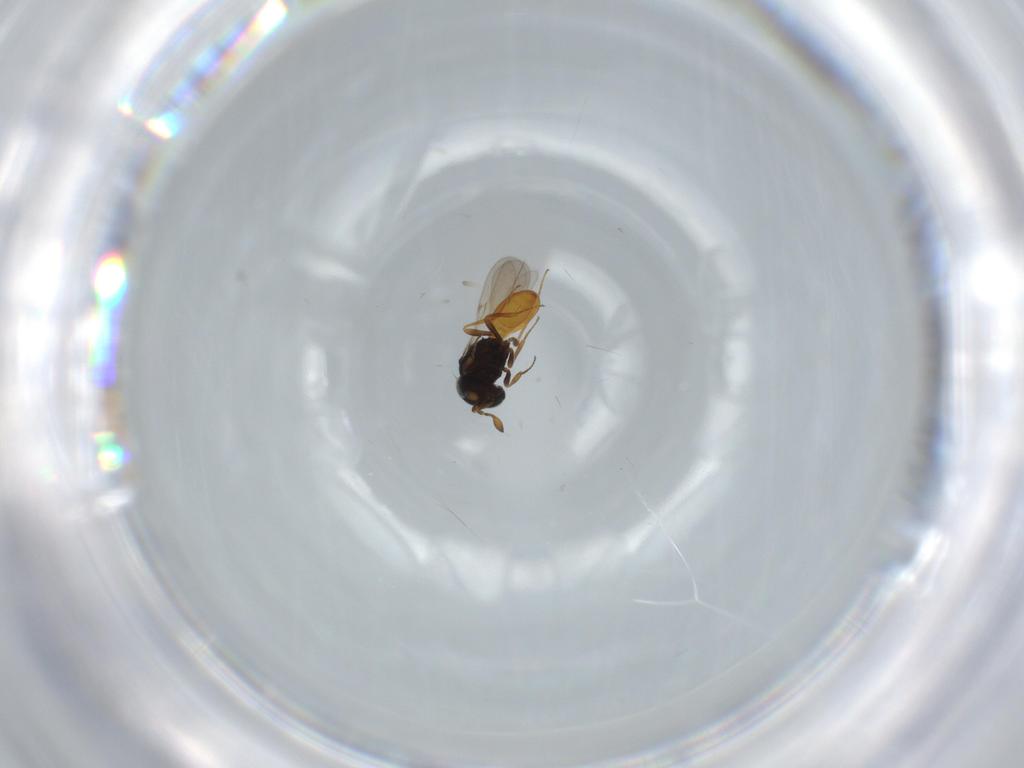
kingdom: Animalia
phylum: Arthropoda
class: Insecta
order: Hymenoptera
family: Scelionidae
